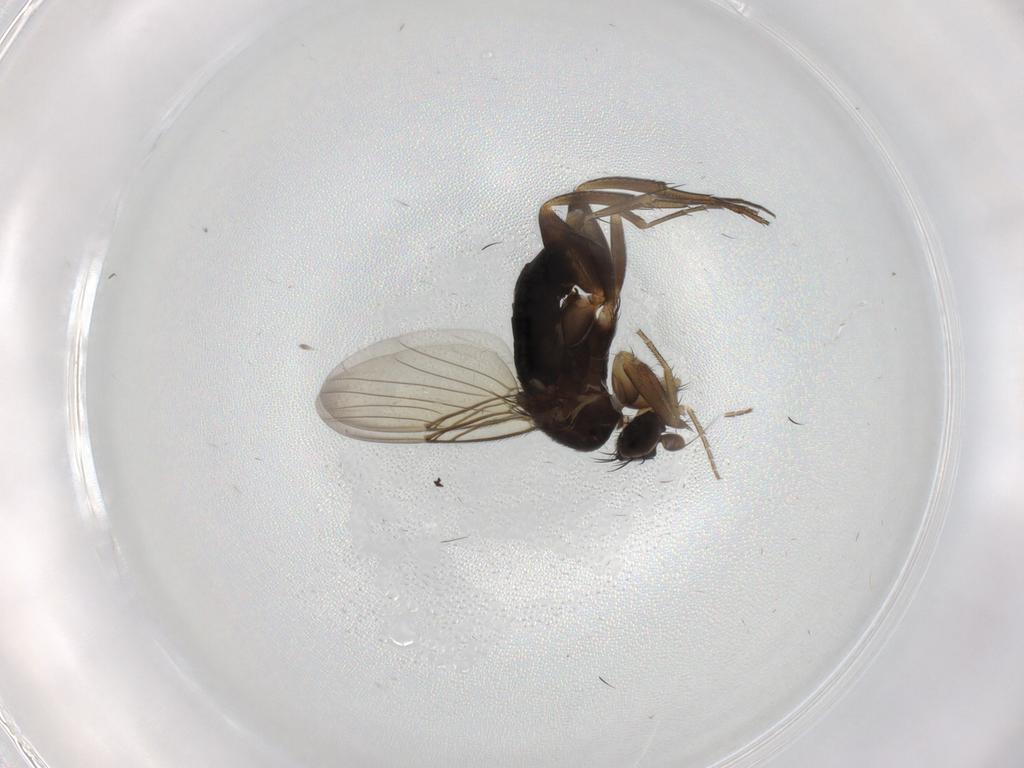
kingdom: Animalia
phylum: Arthropoda
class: Insecta
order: Diptera
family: Phoridae
